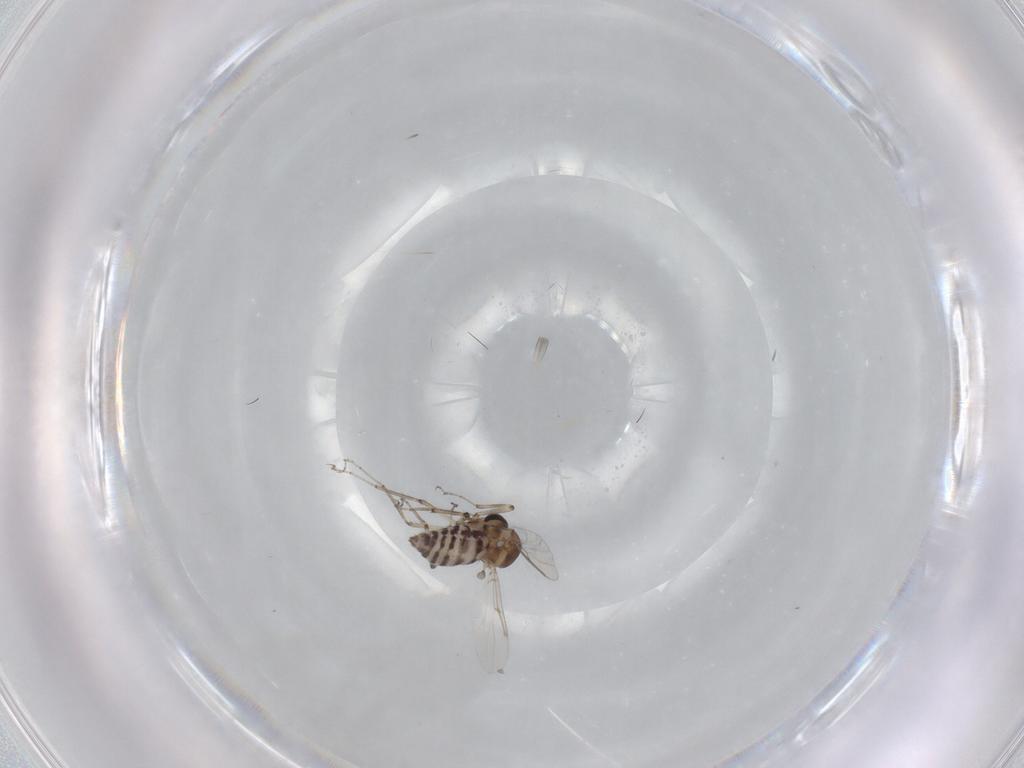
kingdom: Animalia
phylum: Arthropoda
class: Insecta
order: Diptera
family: Ceratopogonidae
